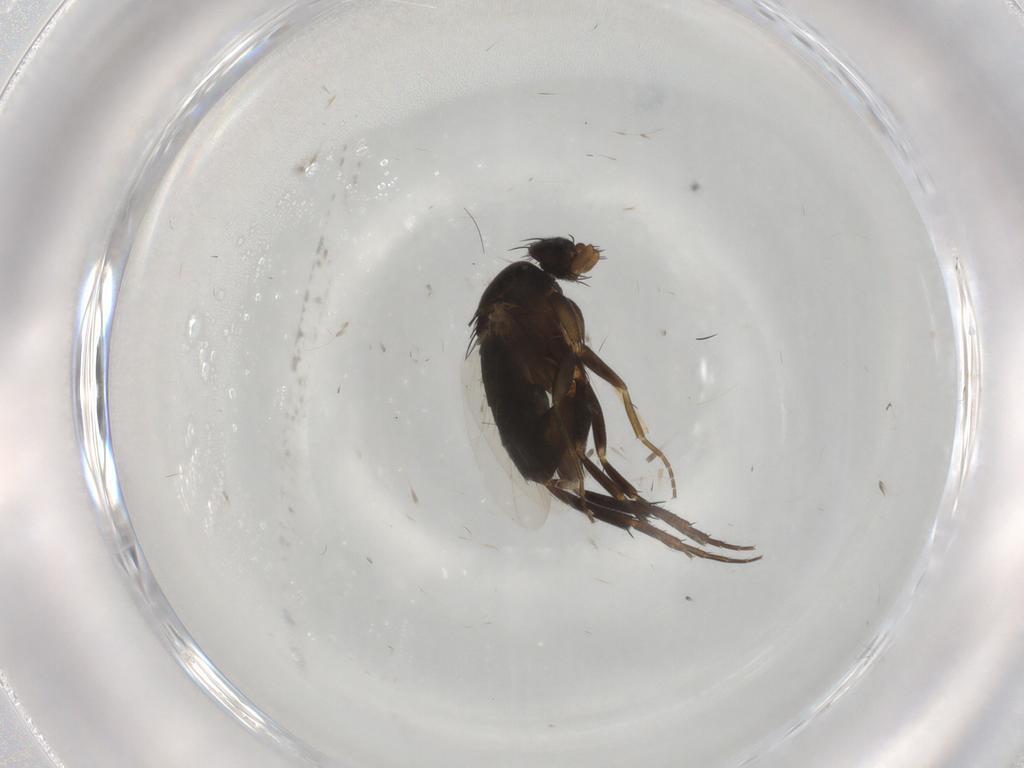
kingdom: Animalia
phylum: Arthropoda
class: Insecta
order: Diptera
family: Phoridae
